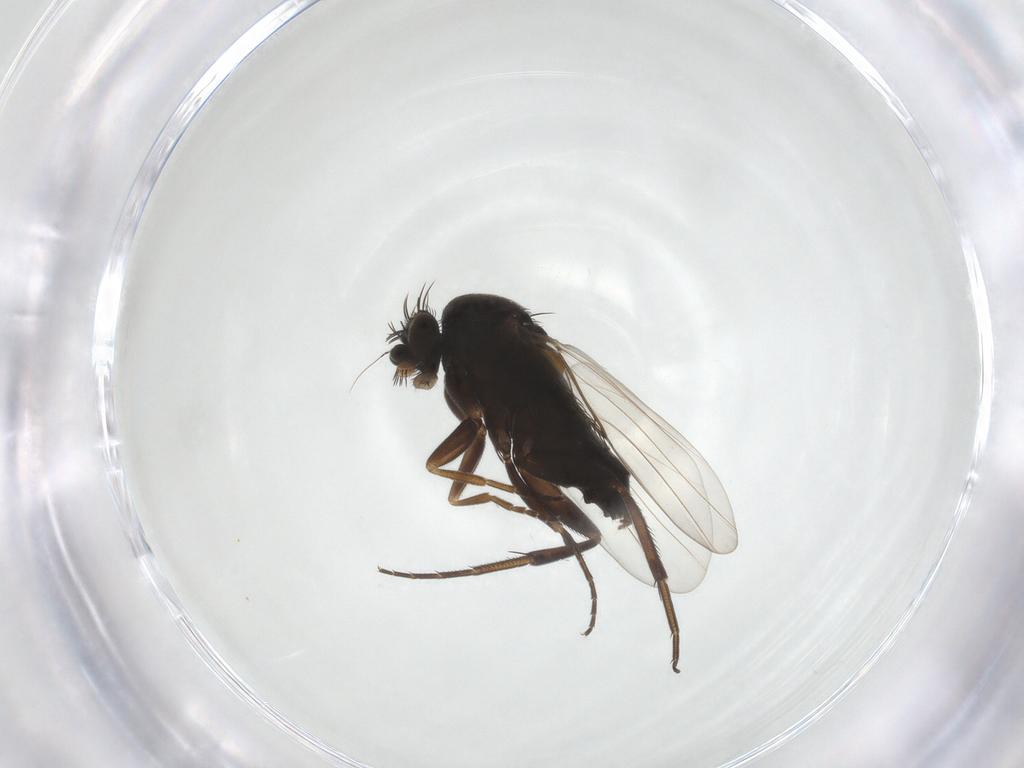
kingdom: Animalia
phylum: Arthropoda
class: Insecta
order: Diptera
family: Phoridae
